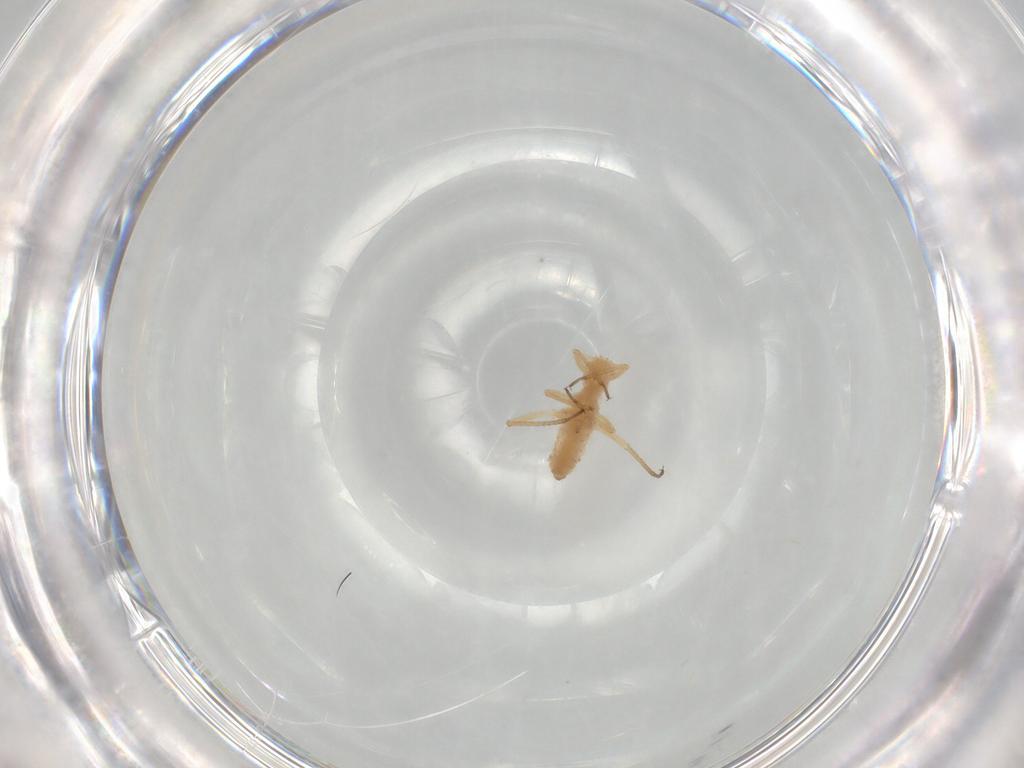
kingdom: Animalia
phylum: Arthropoda
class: Insecta
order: Hemiptera
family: Aphididae
